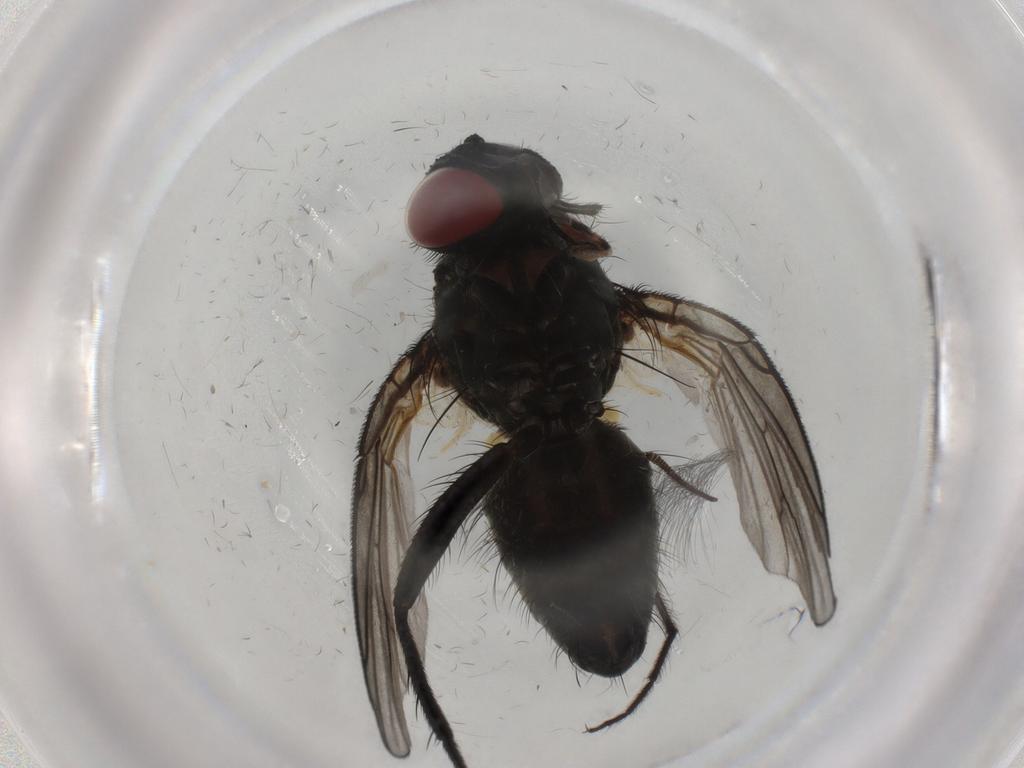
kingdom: Animalia
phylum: Arthropoda
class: Insecta
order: Diptera
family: Muscidae
